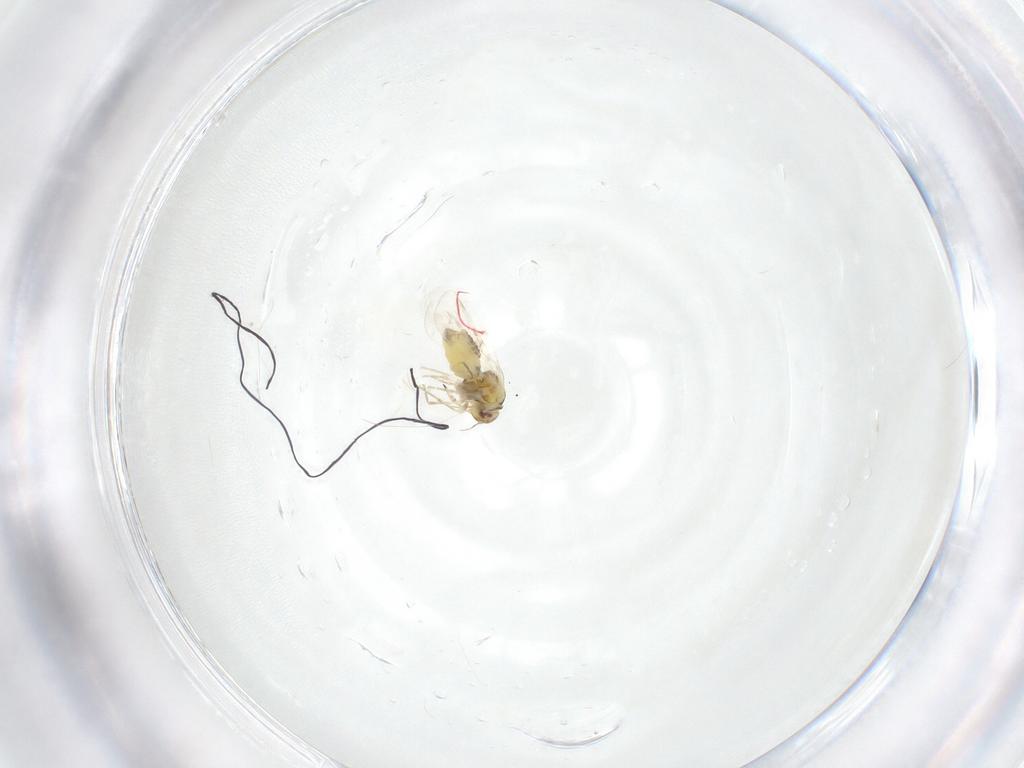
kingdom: Animalia
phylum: Arthropoda
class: Insecta
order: Hemiptera
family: Aleyrodidae
